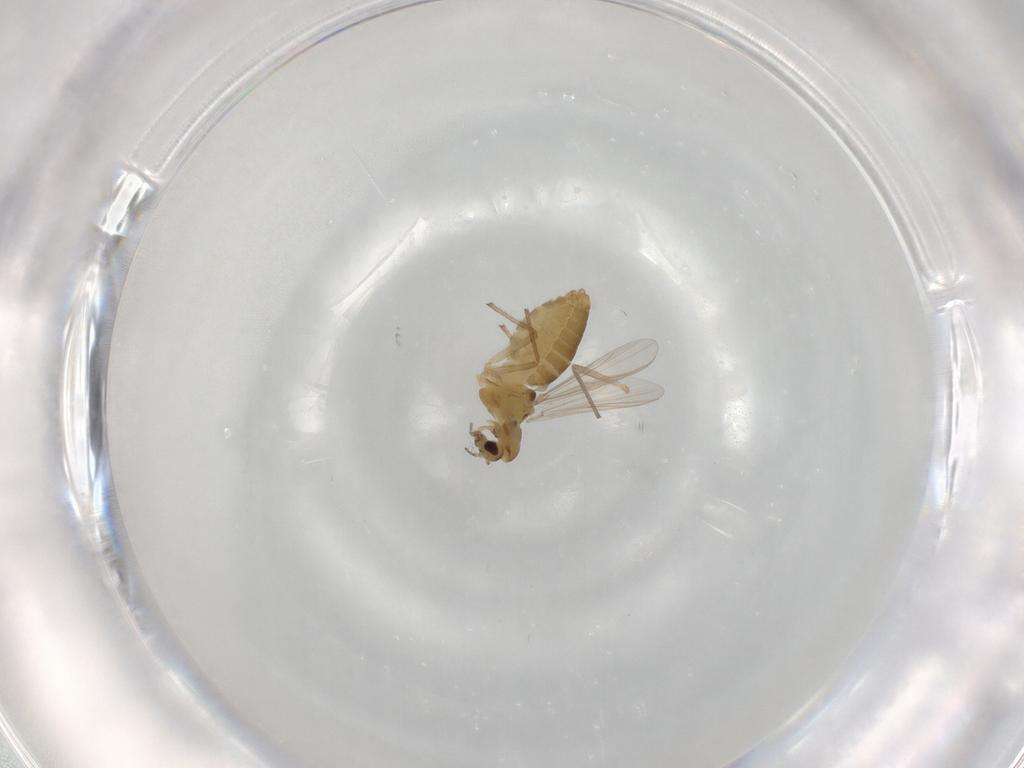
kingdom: Animalia
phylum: Arthropoda
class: Insecta
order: Diptera
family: Chironomidae
